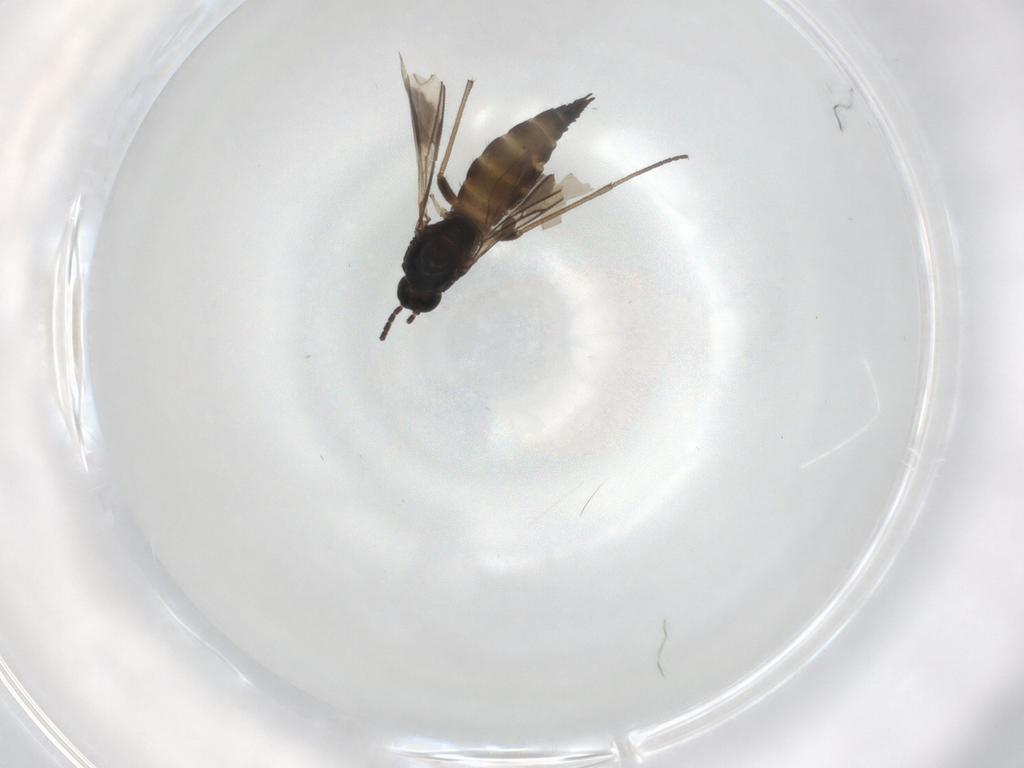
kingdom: Animalia
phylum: Arthropoda
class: Insecta
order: Diptera
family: Sciaridae
